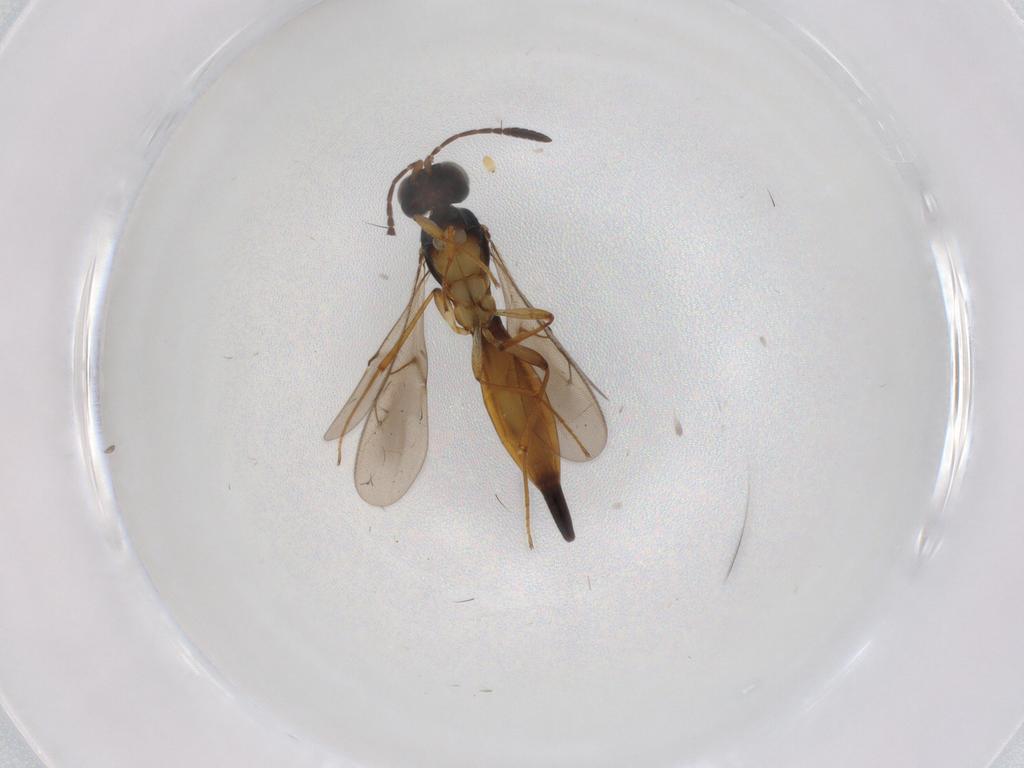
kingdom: Animalia
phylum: Arthropoda
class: Insecta
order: Hymenoptera
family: Scelionidae
